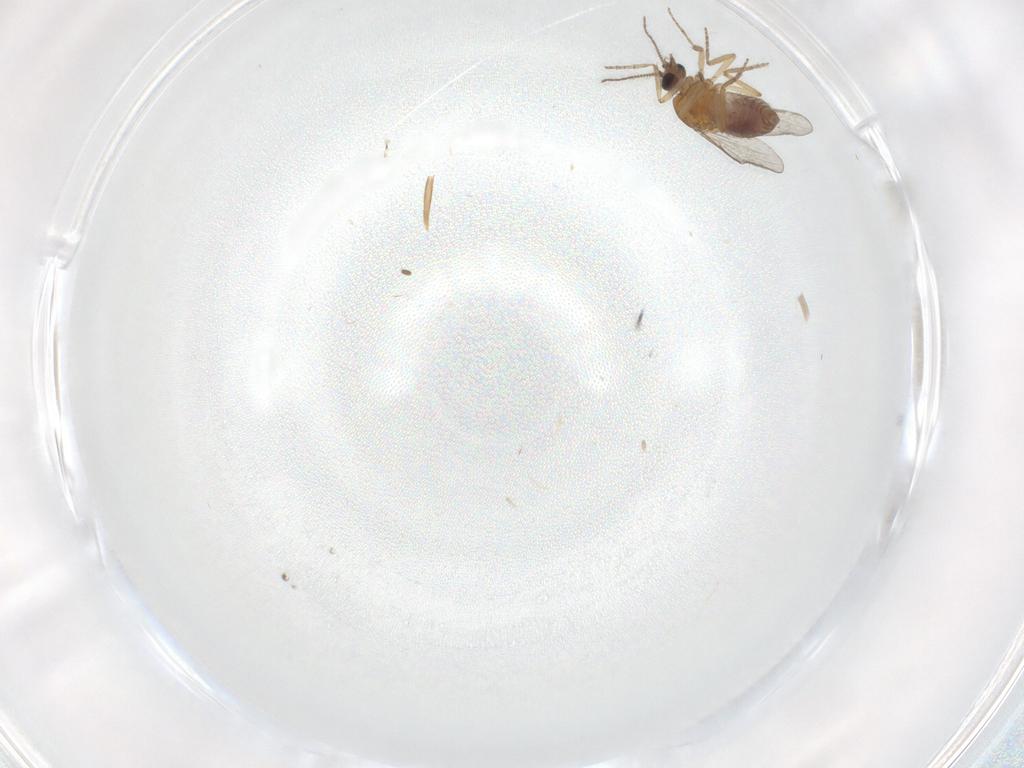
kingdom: Animalia
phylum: Arthropoda
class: Insecta
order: Diptera
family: Ceratopogonidae
